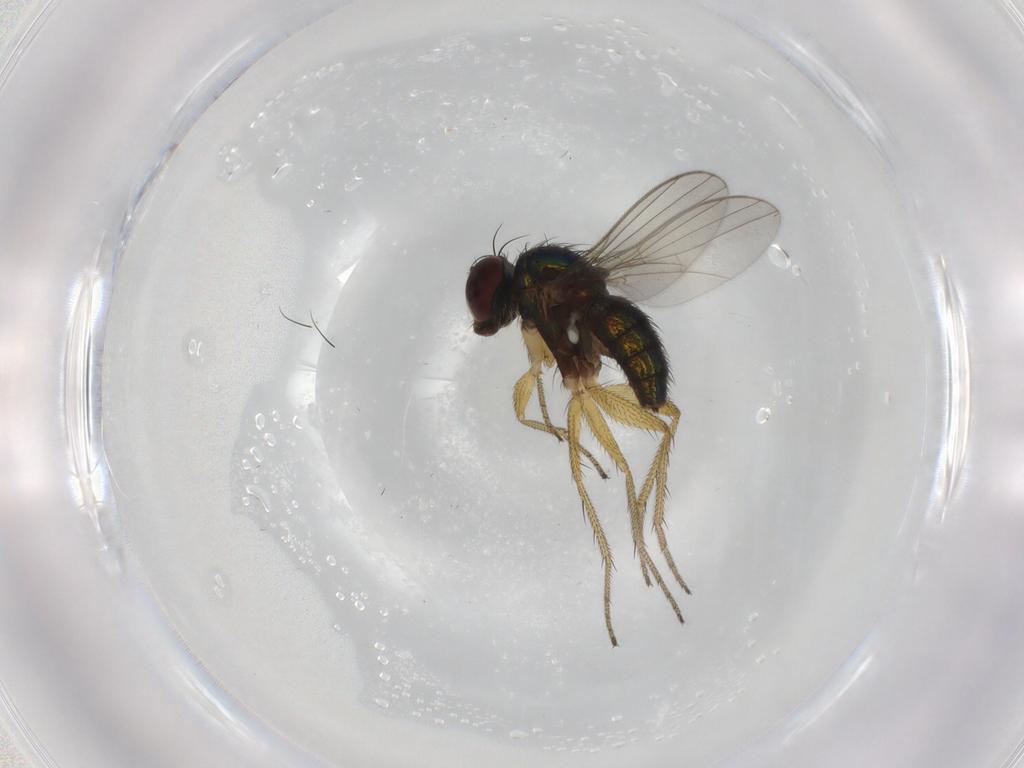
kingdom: Animalia
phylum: Arthropoda
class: Insecta
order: Diptera
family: Dolichopodidae
